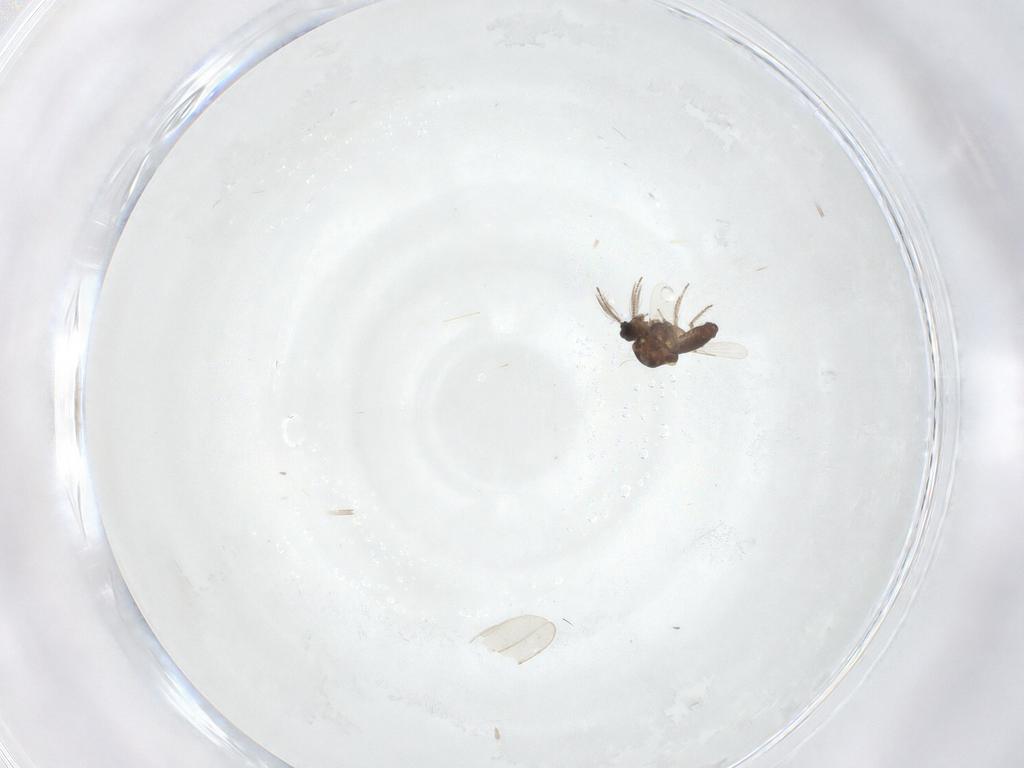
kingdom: Animalia
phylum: Arthropoda
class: Insecta
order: Diptera
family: Ceratopogonidae
